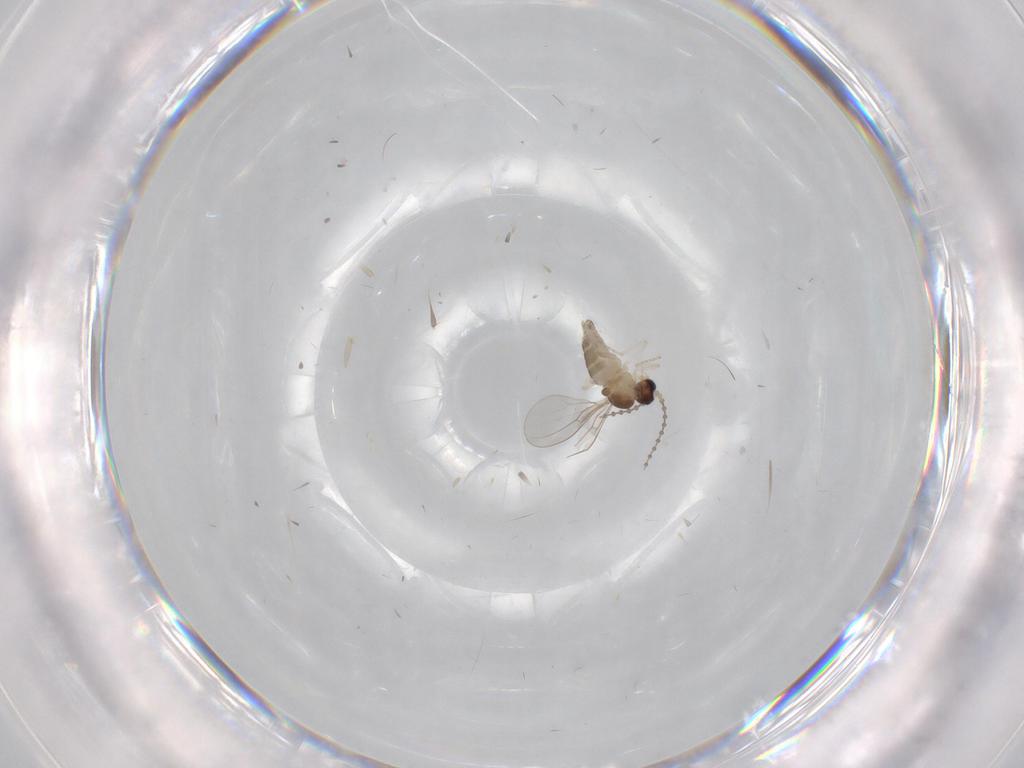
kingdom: Animalia
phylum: Arthropoda
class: Insecta
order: Diptera
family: Cecidomyiidae
